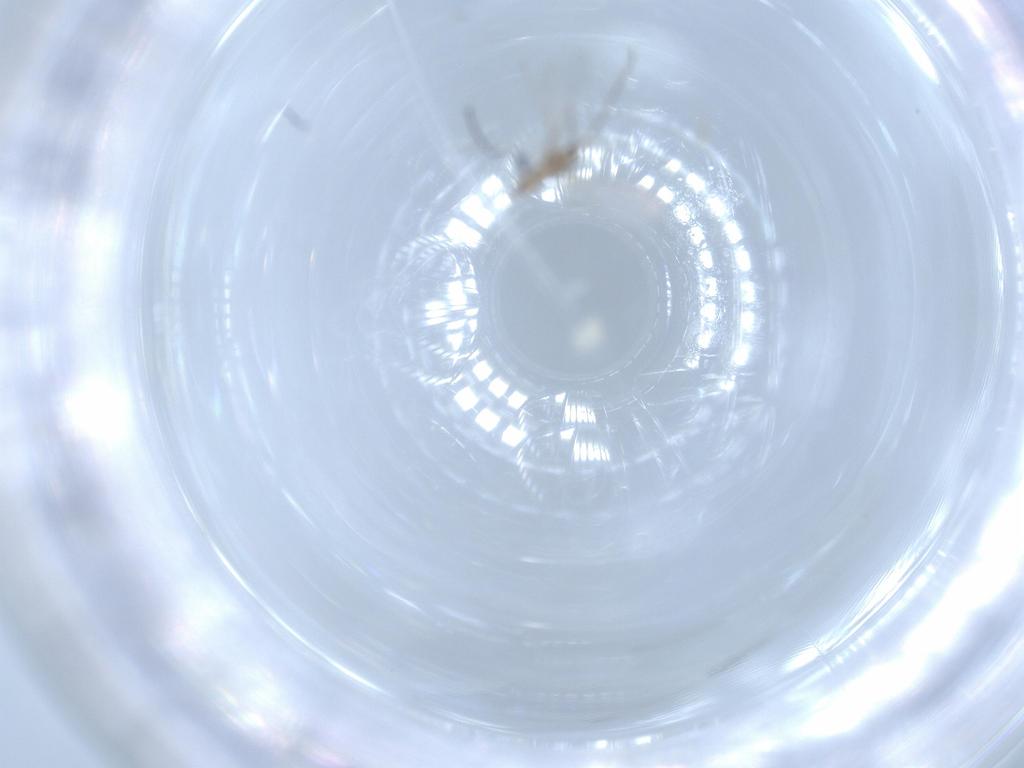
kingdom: Animalia
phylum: Arthropoda
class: Insecta
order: Diptera
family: Cecidomyiidae
